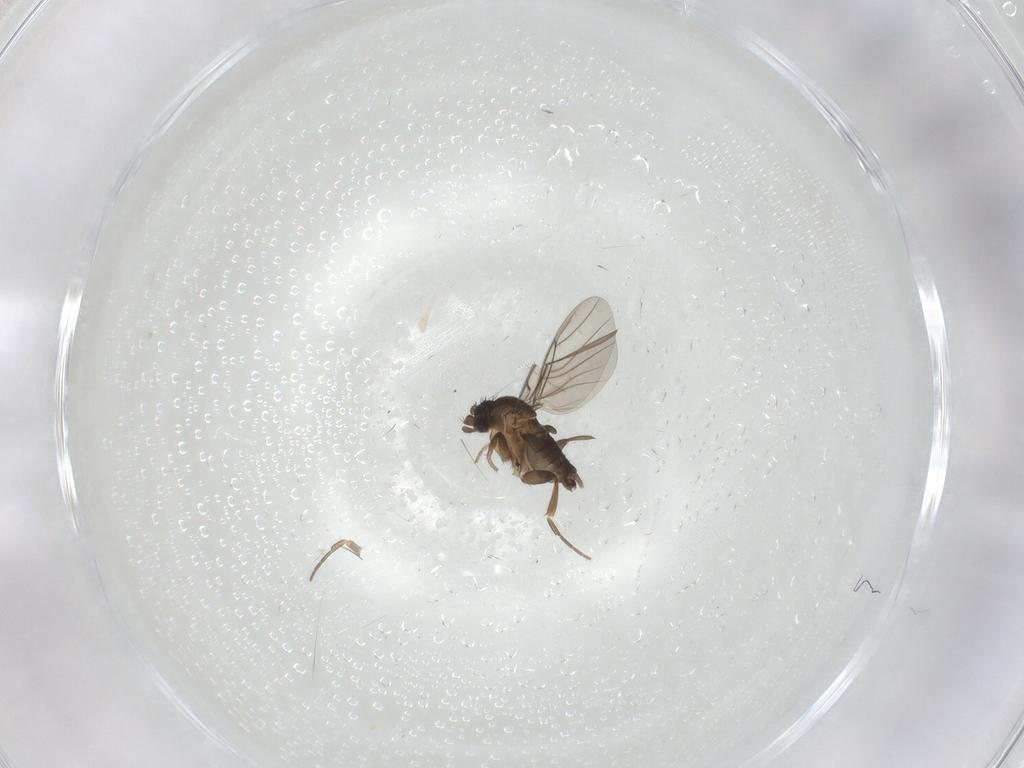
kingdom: Animalia
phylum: Arthropoda
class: Insecta
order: Diptera
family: Phoridae
